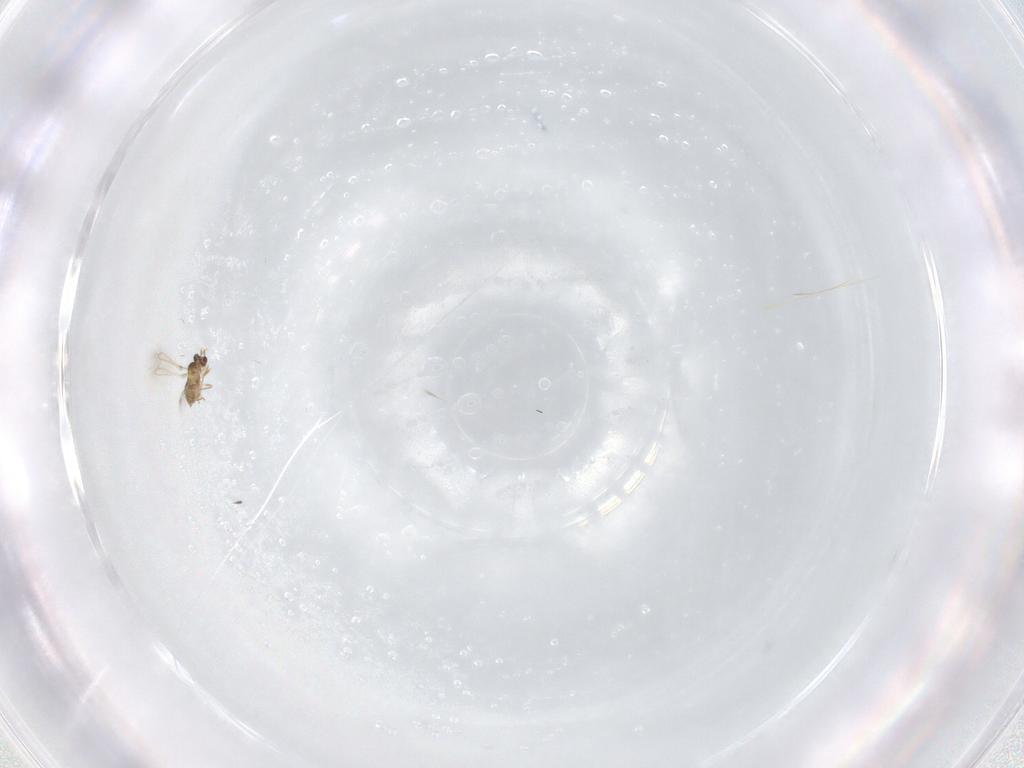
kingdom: Animalia
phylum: Arthropoda
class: Insecta
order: Hymenoptera
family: Mymaridae
